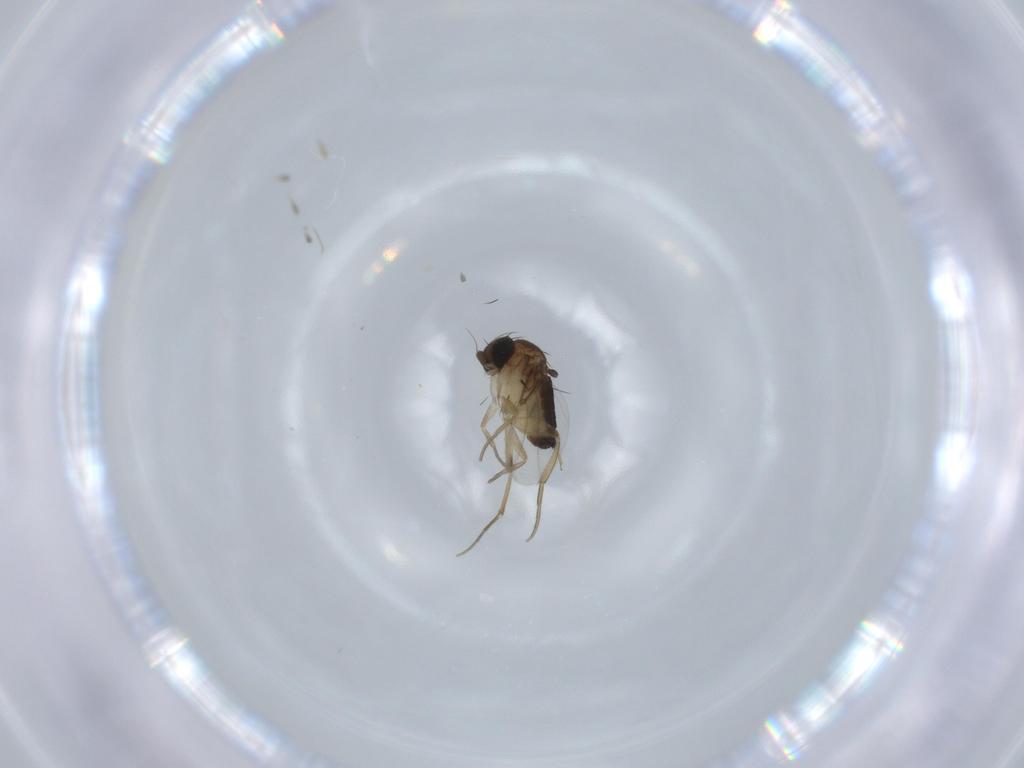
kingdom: Animalia
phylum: Arthropoda
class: Insecta
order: Diptera
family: Phoridae
